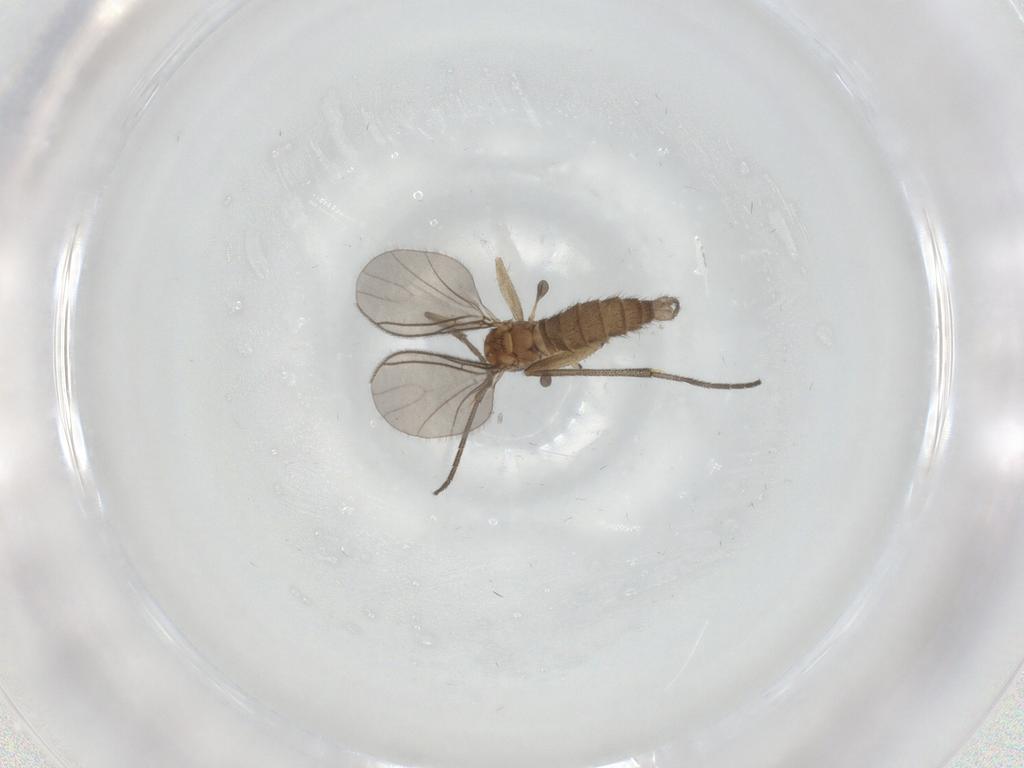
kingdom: Animalia
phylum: Arthropoda
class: Insecta
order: Diptera
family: Sciaridae
